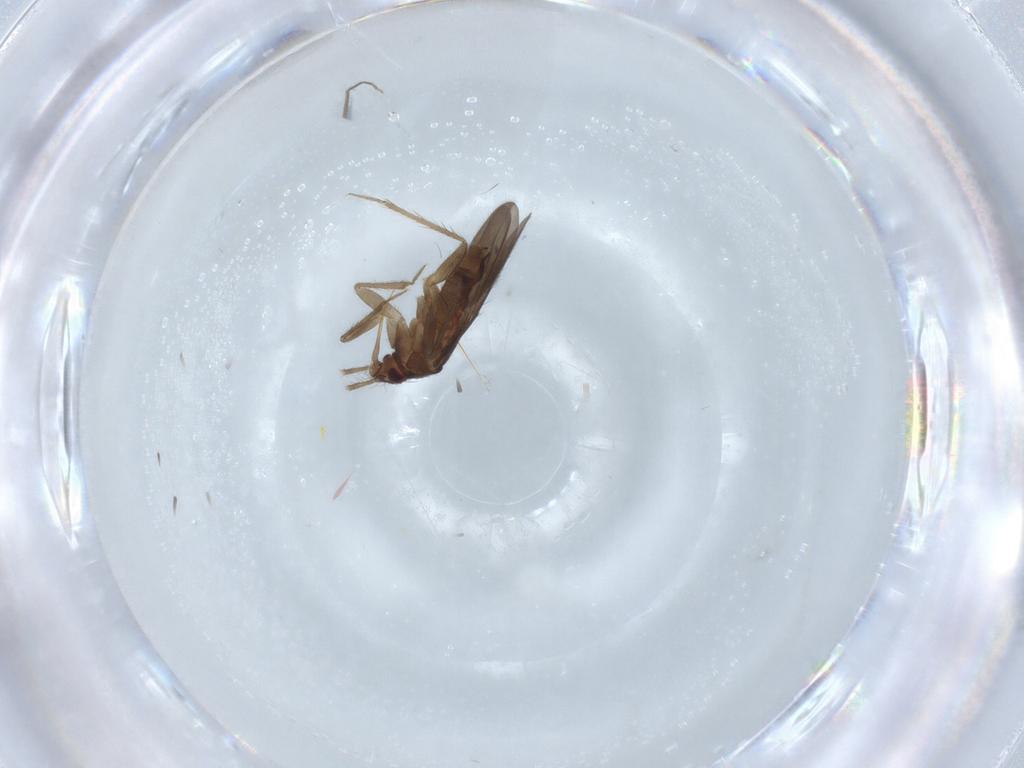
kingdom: Animalia
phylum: Arthropoda
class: Insecta
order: Hemiptera
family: Ceratocombidae
